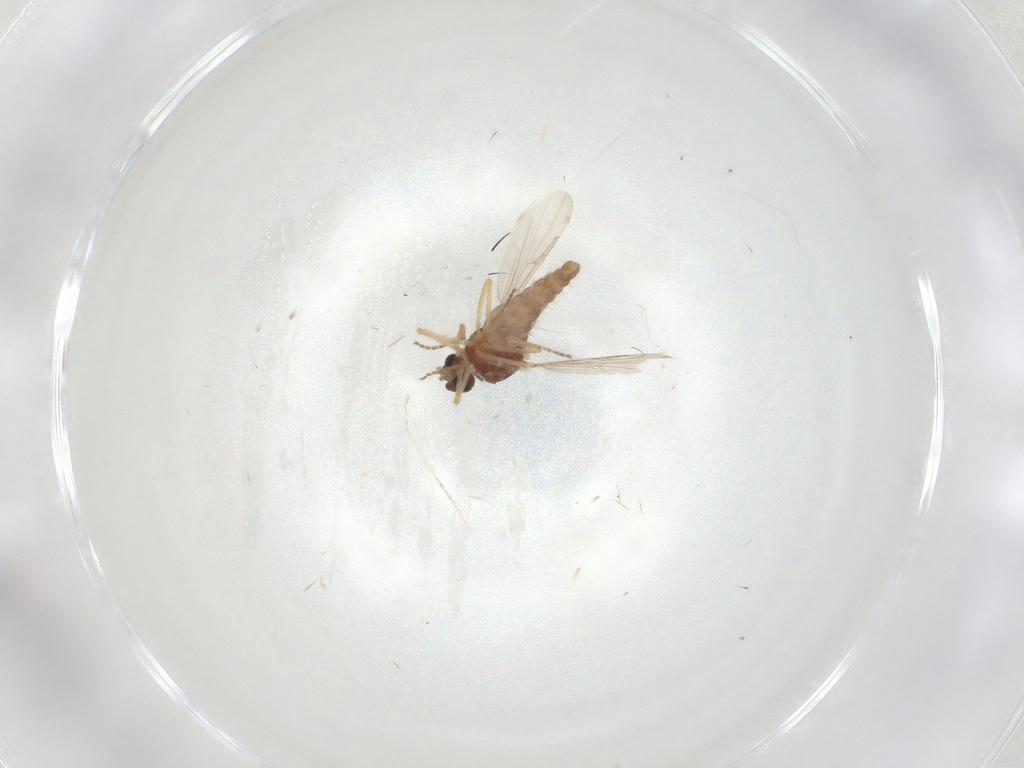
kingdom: Animalia
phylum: Arthropoda
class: Insecta
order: Diptera
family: Ceratopogonidae
